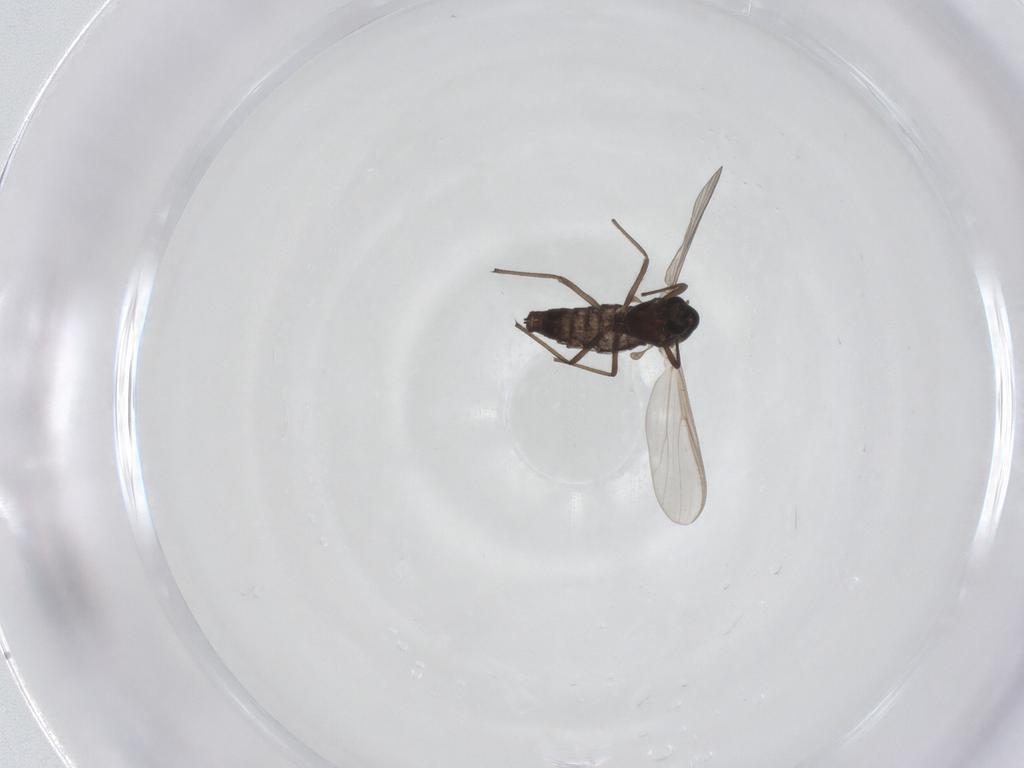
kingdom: Animalia
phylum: Arthropoda
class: Insecta
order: Diptera
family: Chironomidae
